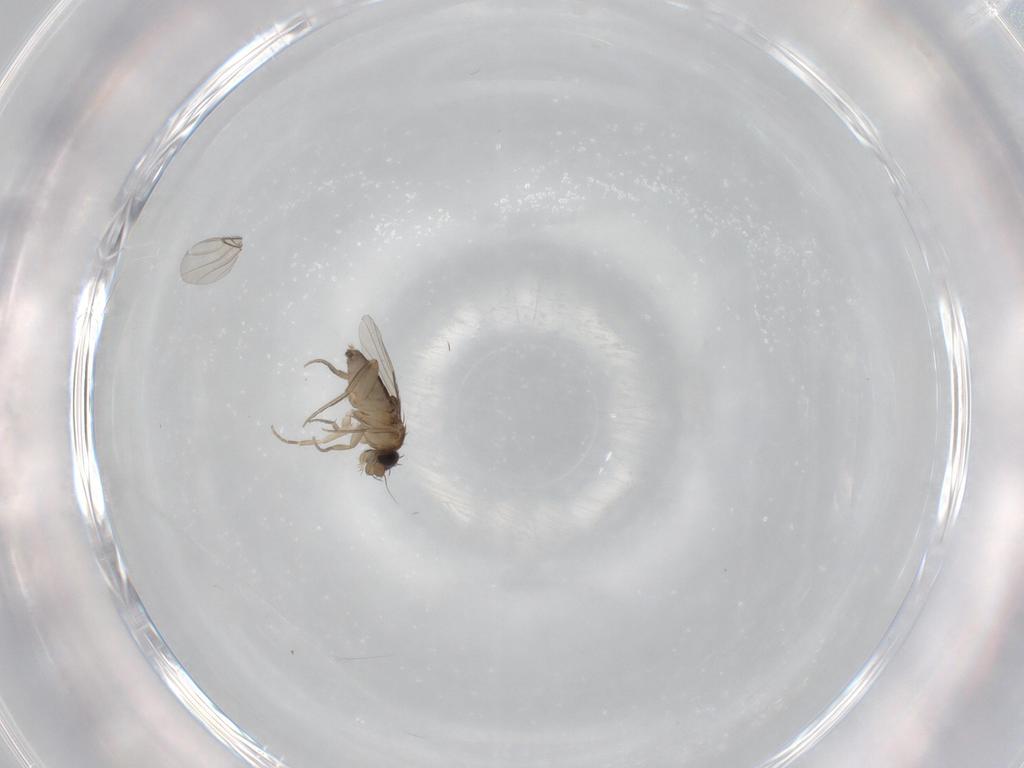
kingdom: Animalia
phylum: Arthropoda
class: Insecta
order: Diptera
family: Phoridae
